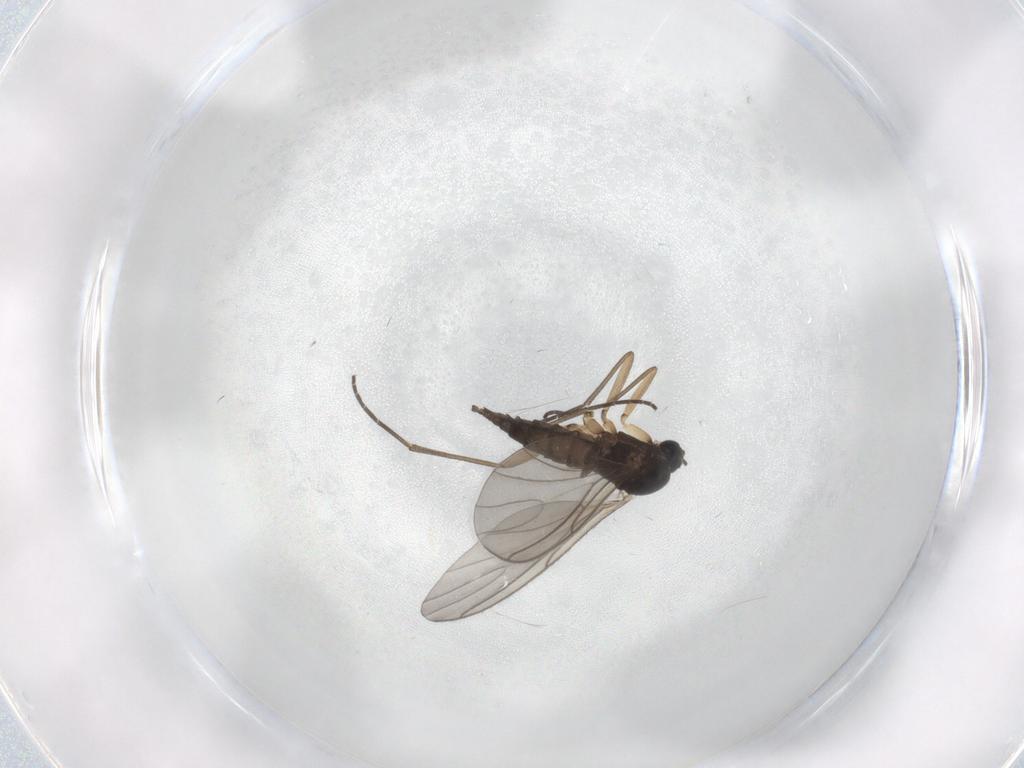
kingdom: Animalia
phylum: Arthropoda
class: Insecta
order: Diptera
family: Sciaridae
